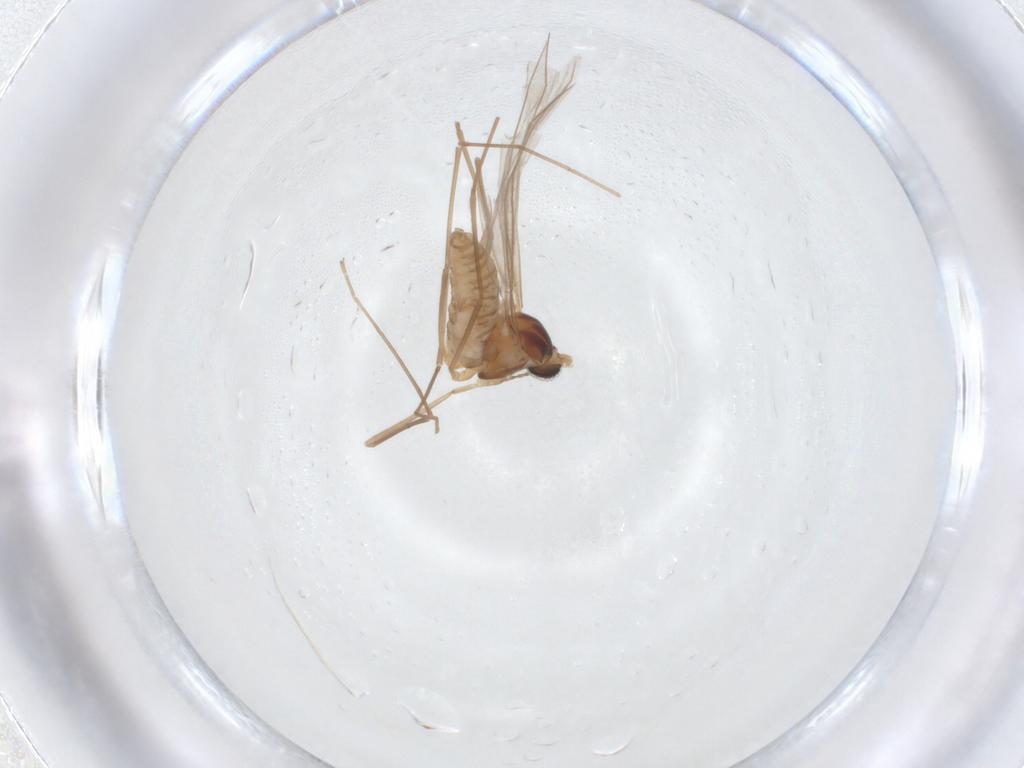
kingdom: Animalia
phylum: Arthropoda
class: Insecta
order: Diptera
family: Cecidomyiidae
